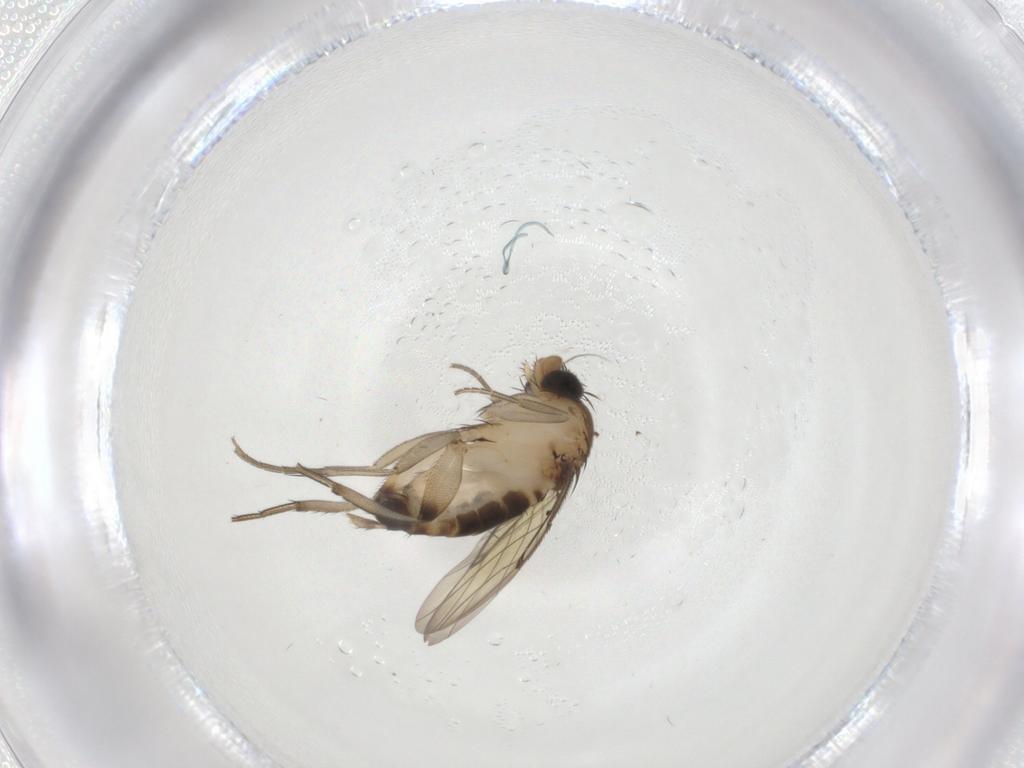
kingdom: Animalia
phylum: Arthropoda
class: Insecta
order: Diptera
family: Phoridae
